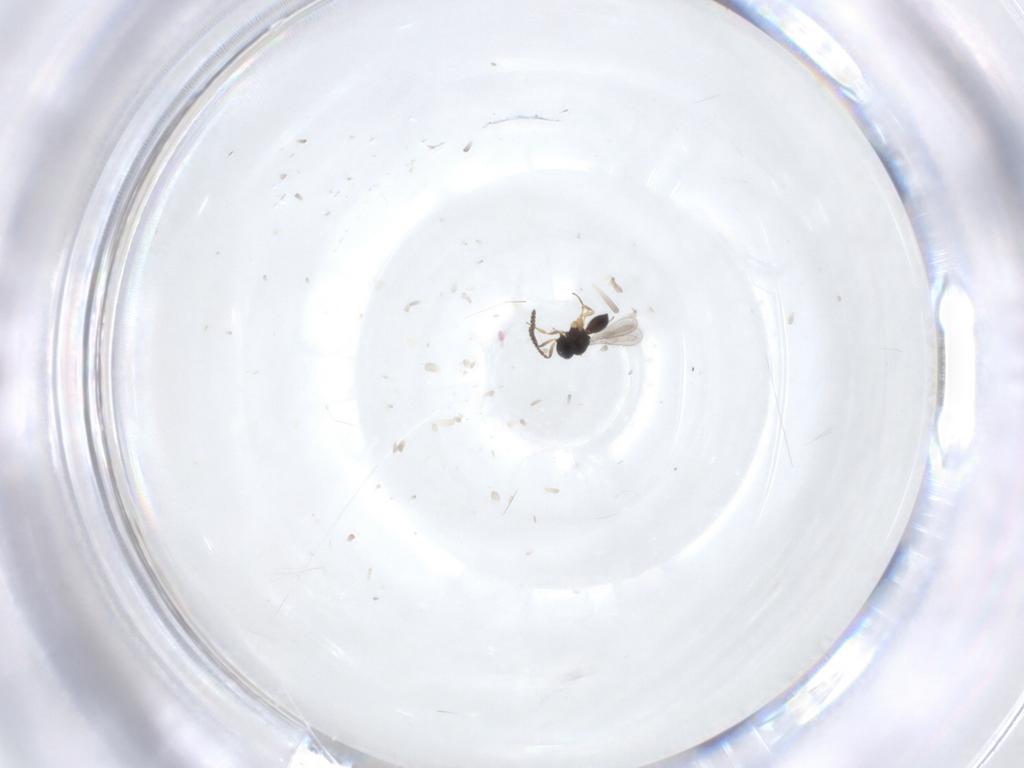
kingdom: Animalia
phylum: Arthropoda
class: Insecta
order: Hymenoptera
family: Scelionidae
